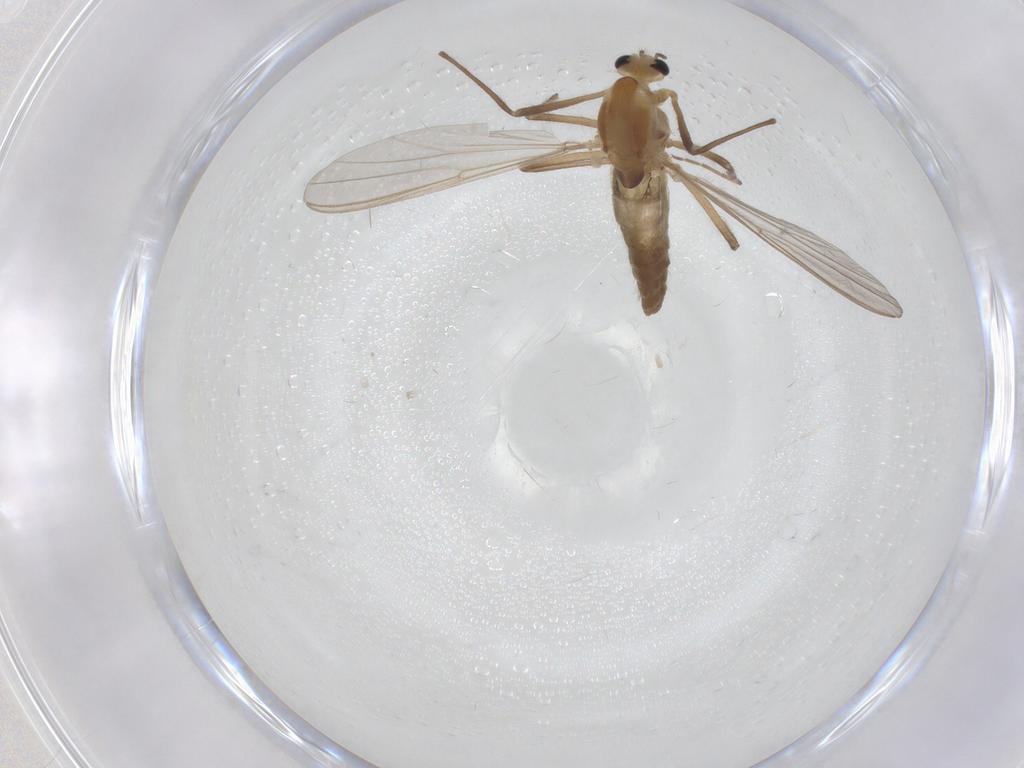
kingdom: Animalia
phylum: Arthropoda
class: Insecta
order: Diptera
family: Chironomidae
